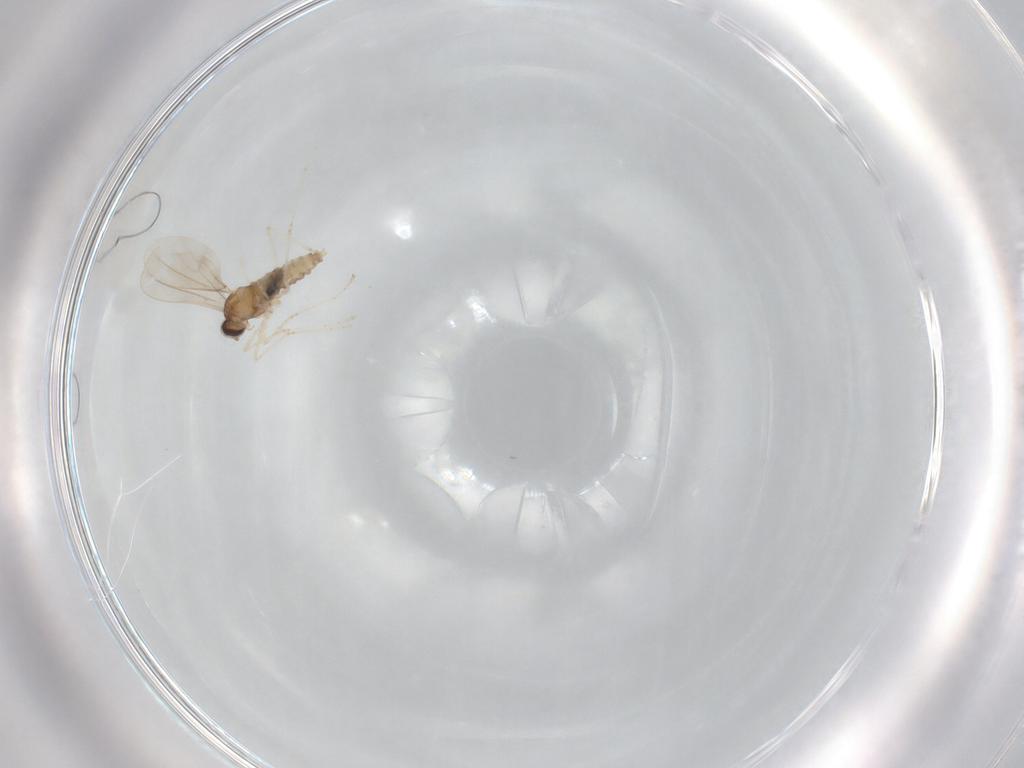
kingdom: Animalia
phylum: Arthropoda
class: Insecta
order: Diptera
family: Cecidomyiidae
